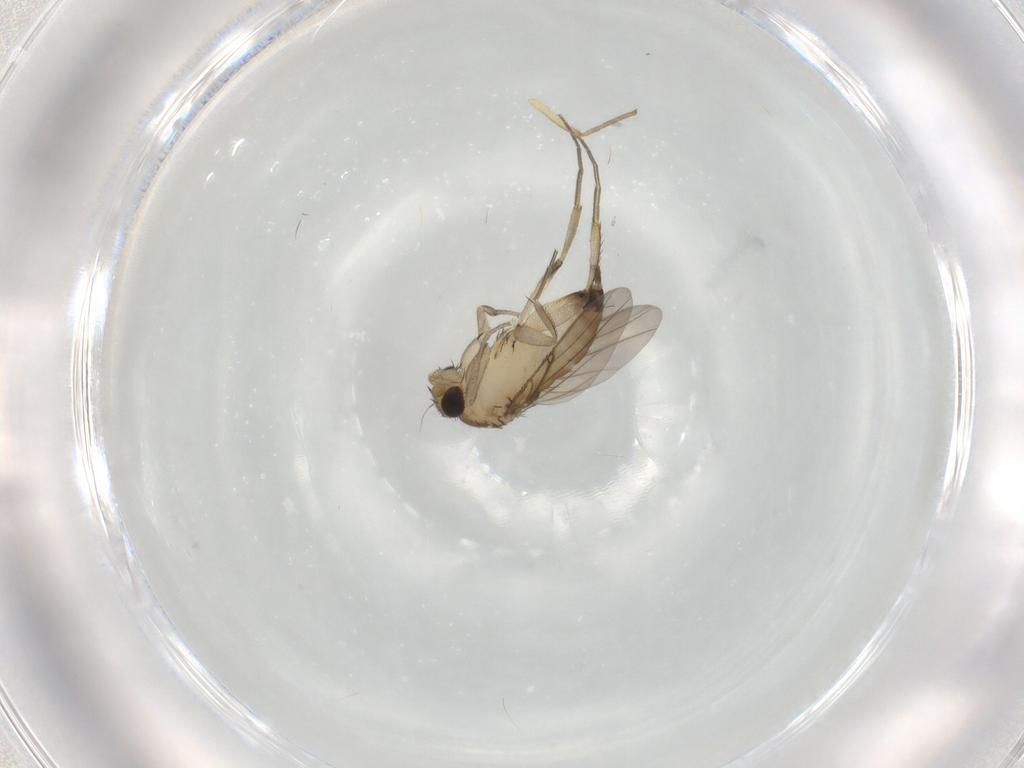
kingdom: Animalia
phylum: Arthropoda
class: Insecta
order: Diptera
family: Phoridae
